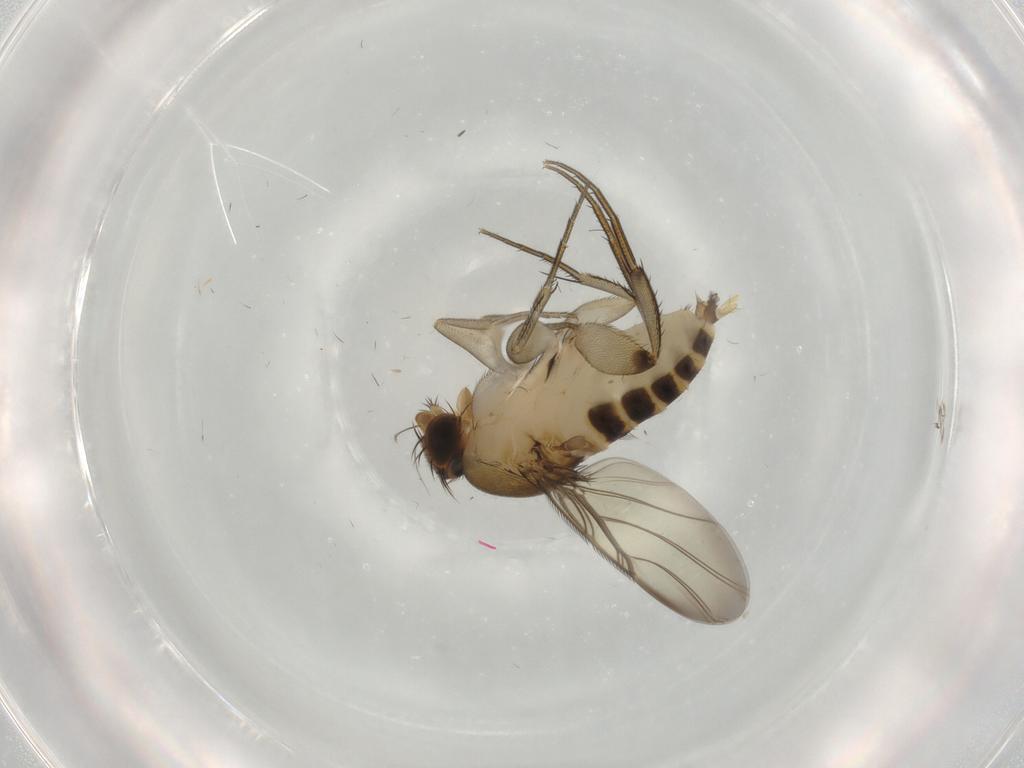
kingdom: Animalia
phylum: Arthropoda
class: Insecta
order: Diptera
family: Phoridae
